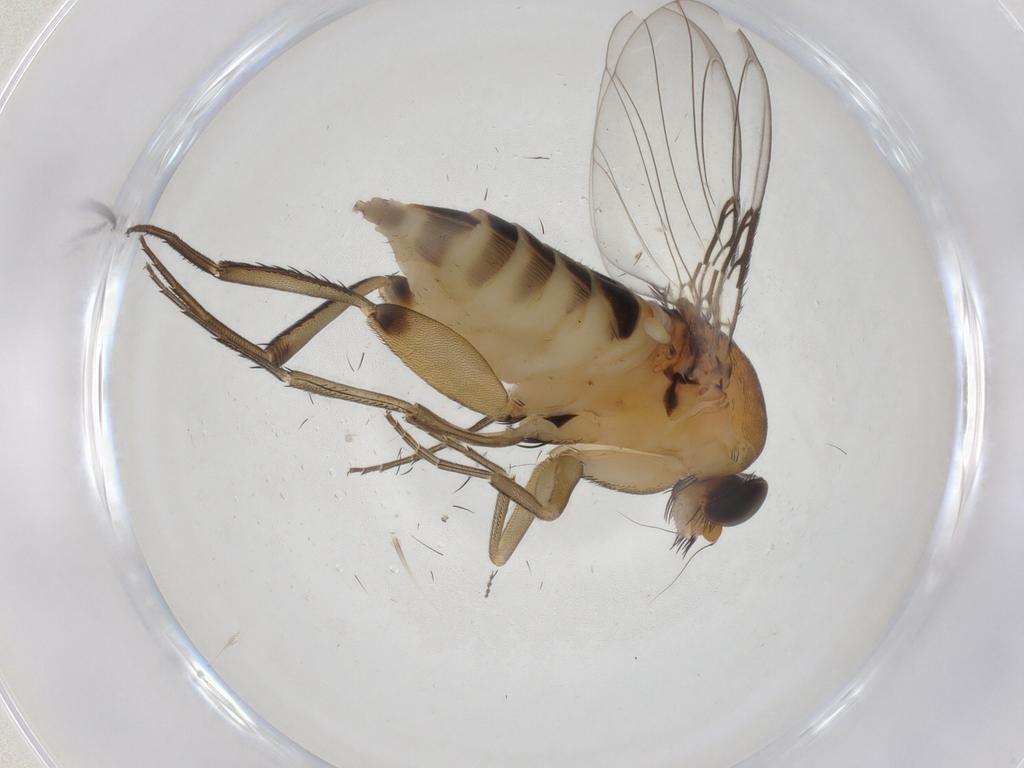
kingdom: Animalia
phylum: Arthropoda
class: Insecta
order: Diptera
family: Phoridae
